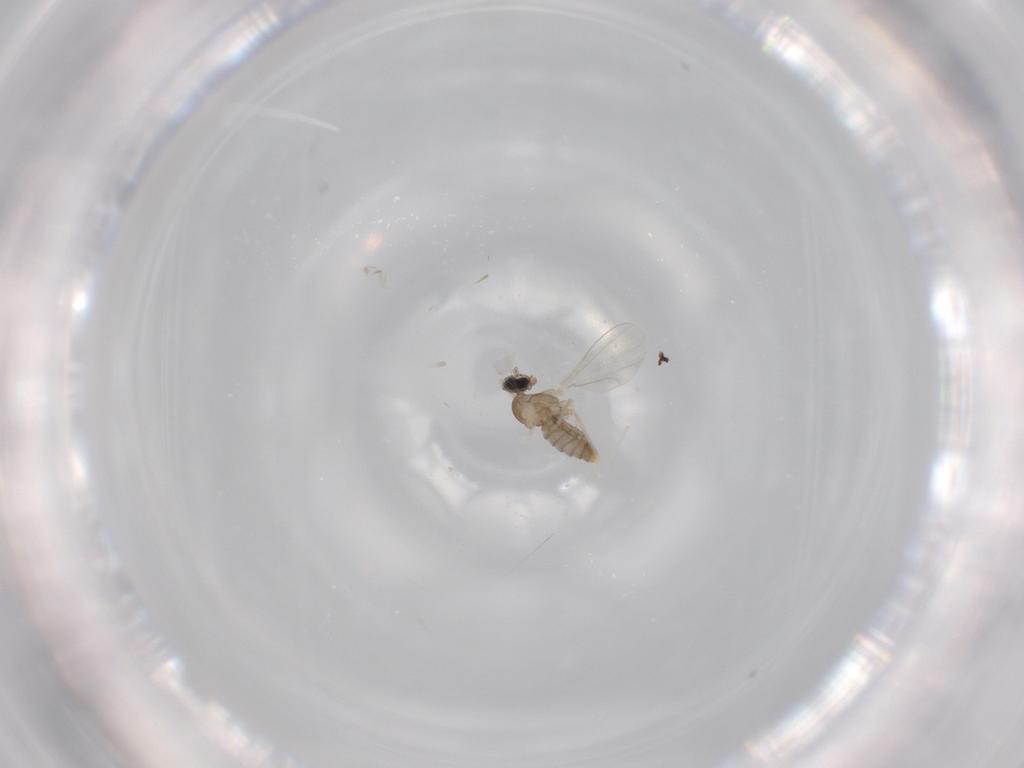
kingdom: Animalia
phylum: Arthropoda
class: Insecta
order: Diptera
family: Cecidomyiidae
